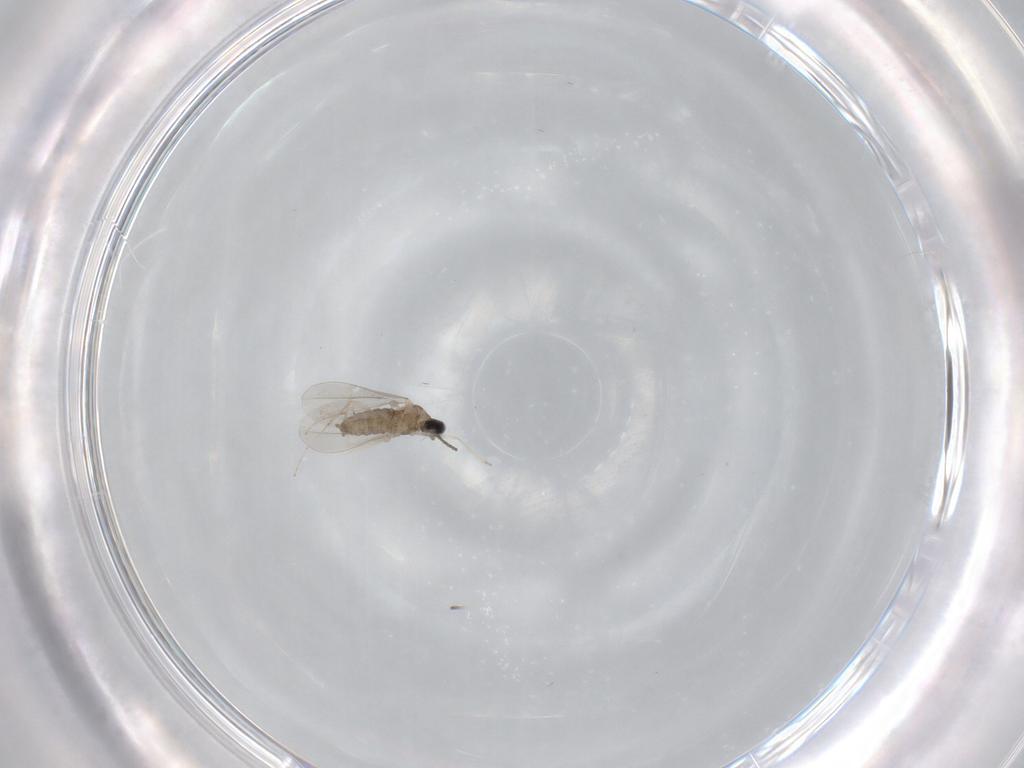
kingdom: Animalia
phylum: Arthropoda
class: Insecta
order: Diptera
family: Cecidomyiidae
